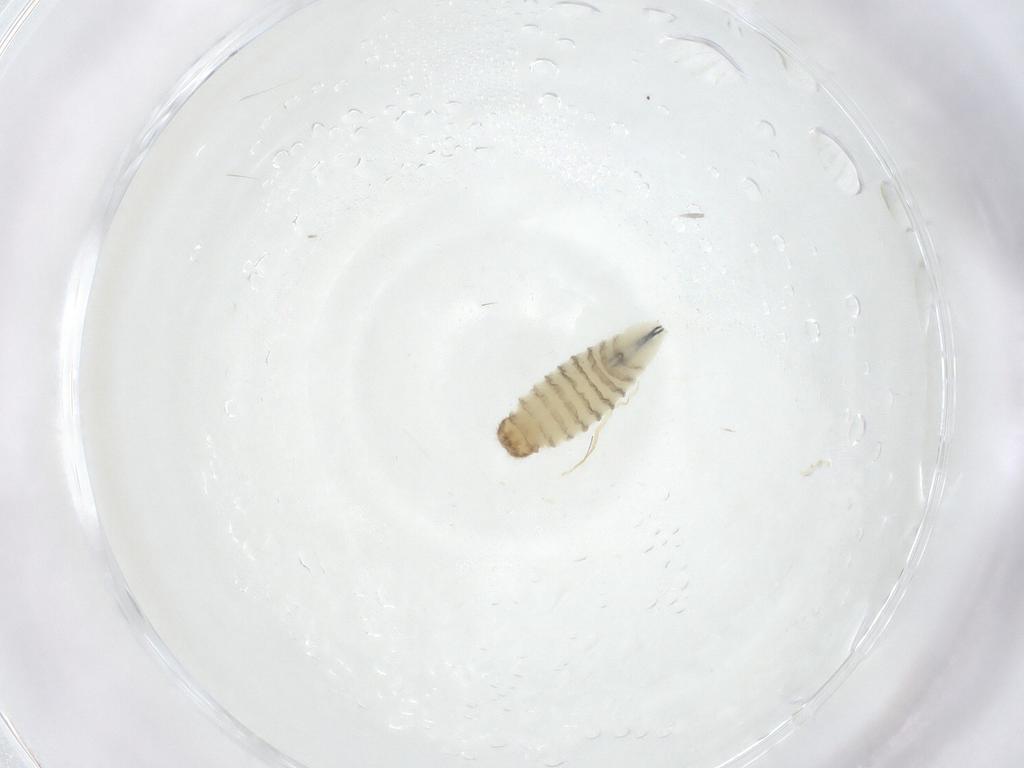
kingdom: Animalia
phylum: Arthropoda
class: Insecta
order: Diptera
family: Sarcophagidae
